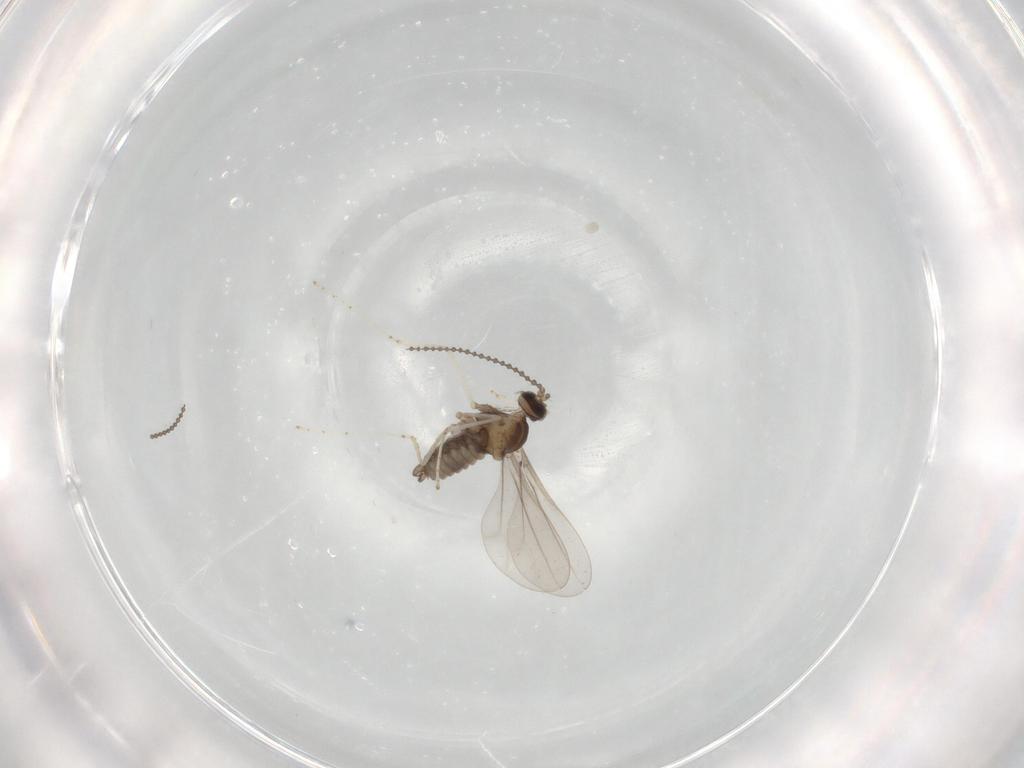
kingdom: Animalia
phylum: Arthropoda
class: Insecta
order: Diptera
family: Cecidomyiidae
